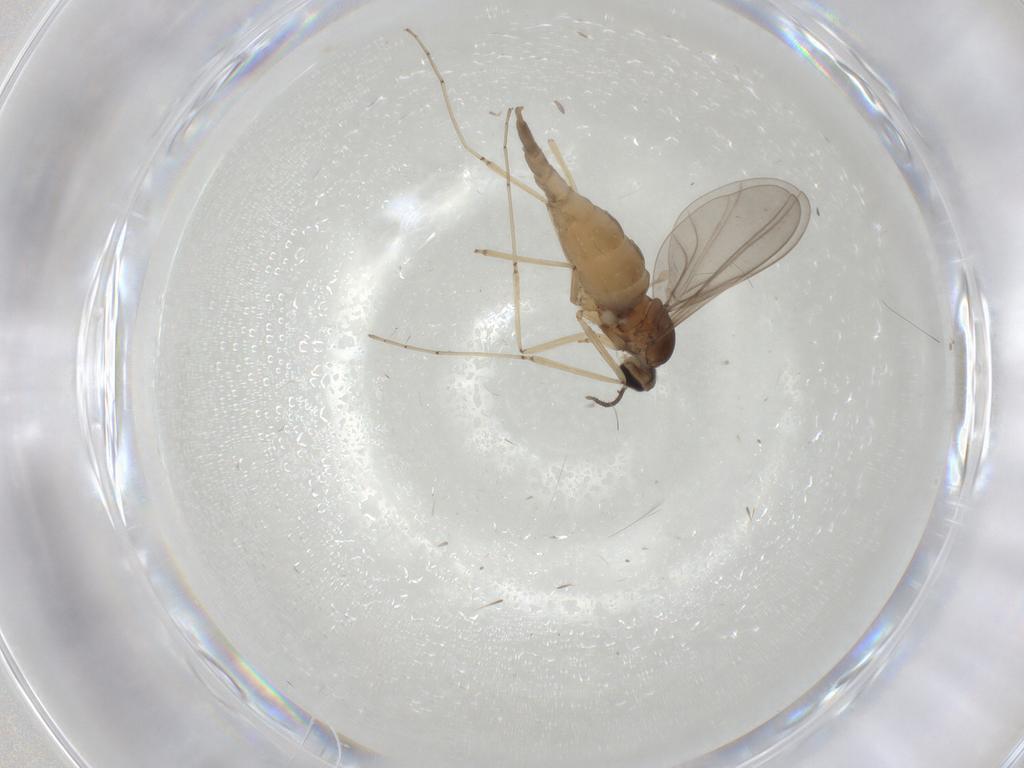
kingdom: Animalia
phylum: Arthropoda
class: Insecta
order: Diptera
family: Cecidomyiidae
